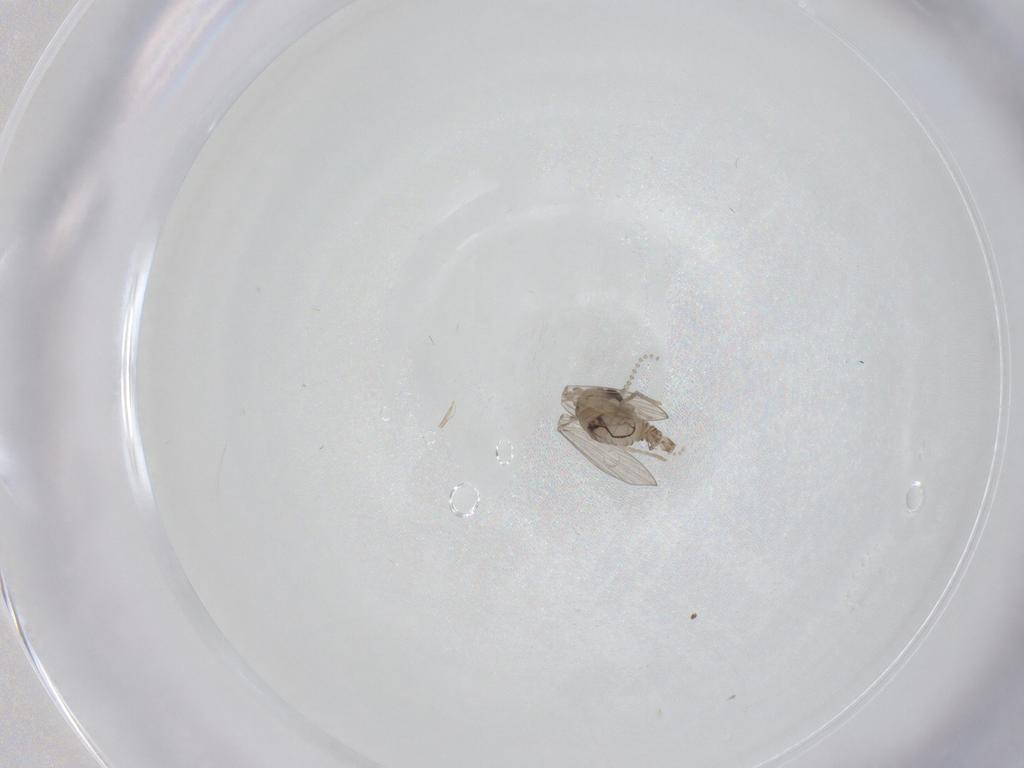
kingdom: Animalia
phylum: Arthropoda
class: Insecta
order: Diptera
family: Psychodidae
